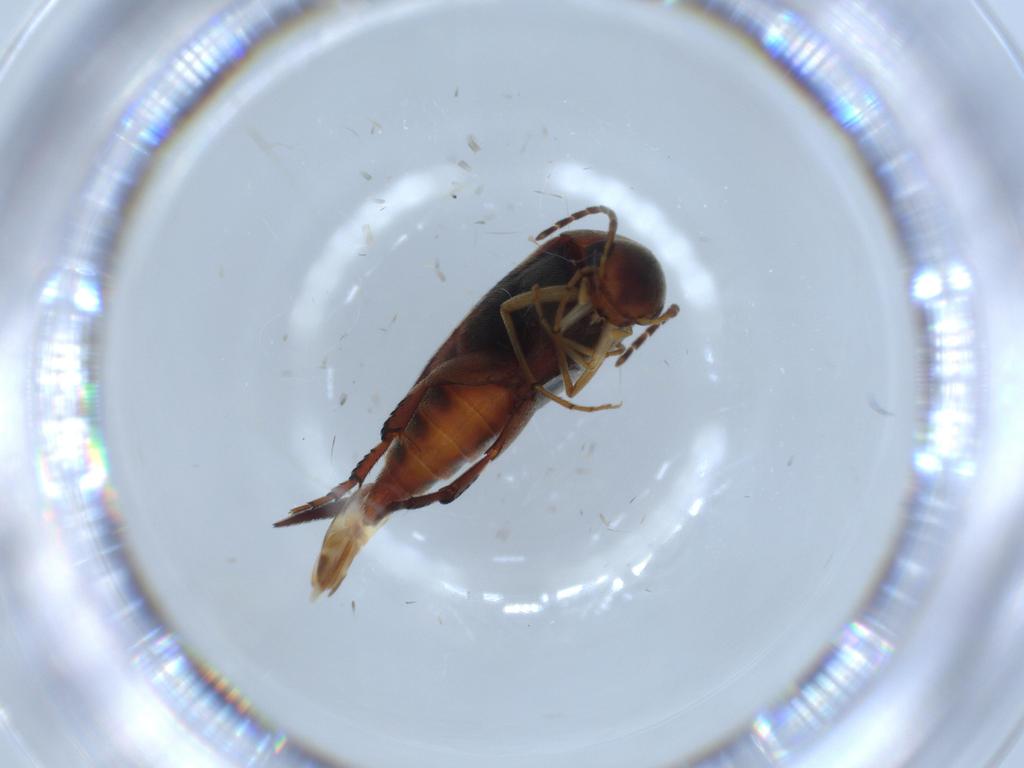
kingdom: Animalia
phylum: Arthropoda
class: Insecta
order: Coleoptera
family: Mordellidae
